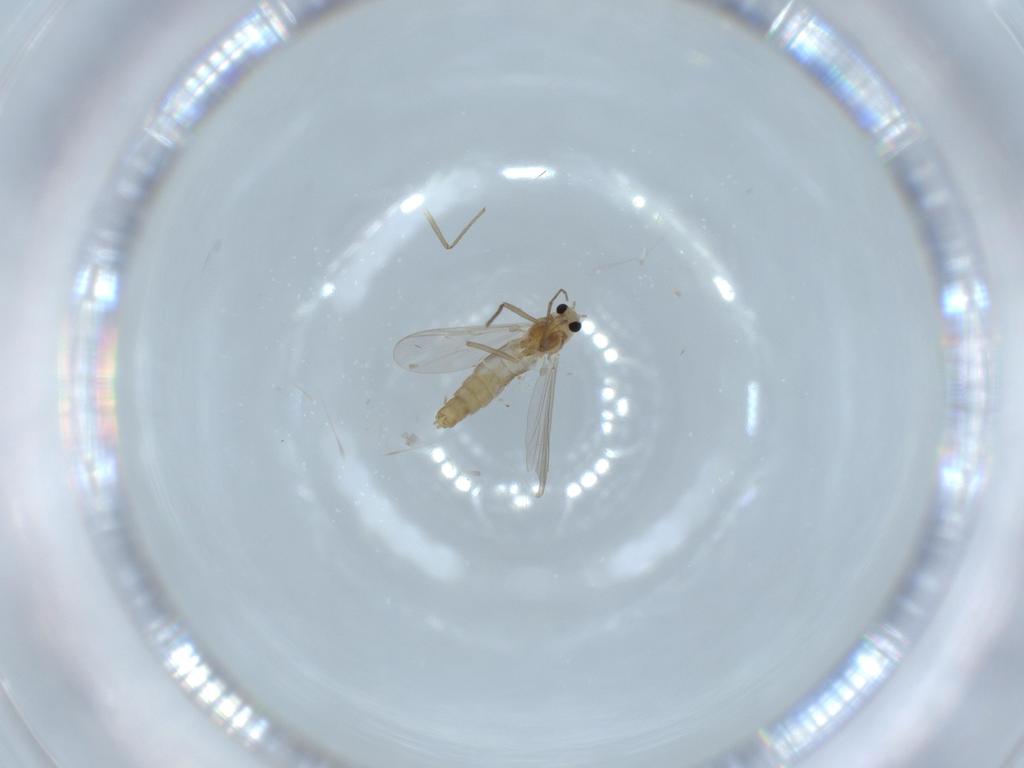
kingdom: Animalia
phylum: Arthropoda
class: Insecta
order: Diptera
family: Chironomidae
